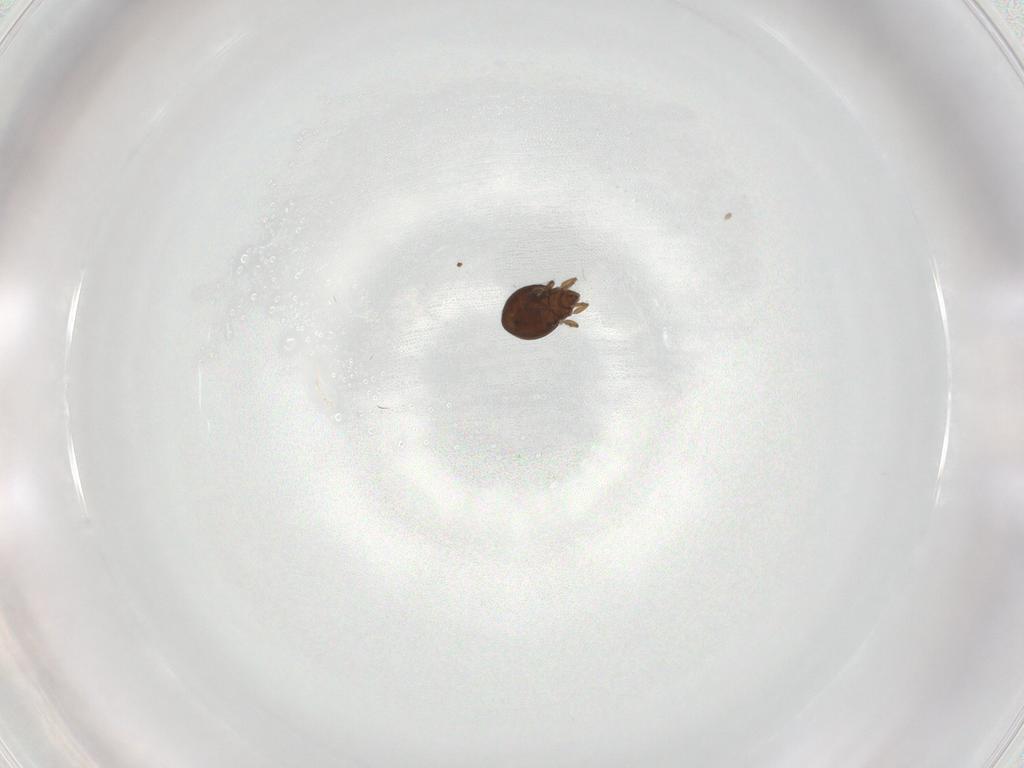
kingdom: Animalia
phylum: Arthropoda
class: Arachnida
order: Sarcoptiformes
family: Oribatulidae
